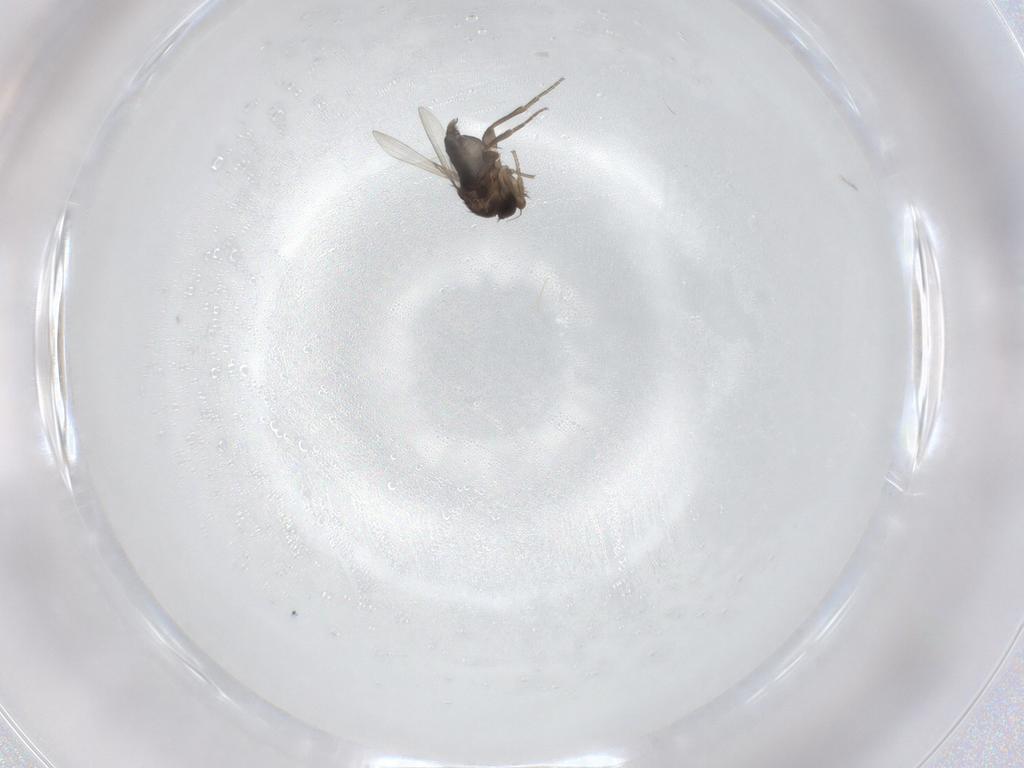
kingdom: Animalia
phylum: Arthropoda
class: Insecta
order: Diptera
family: Phoridae
